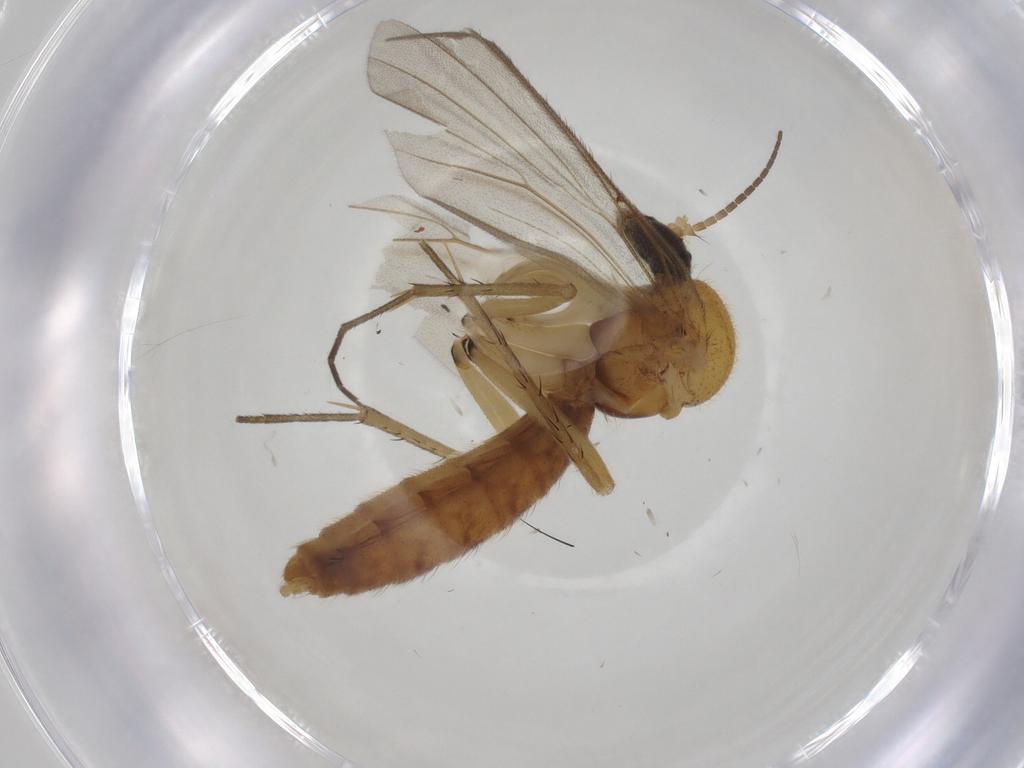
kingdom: Animalia
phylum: Arthropoda
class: Insecta
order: Diptera
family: Empididae
